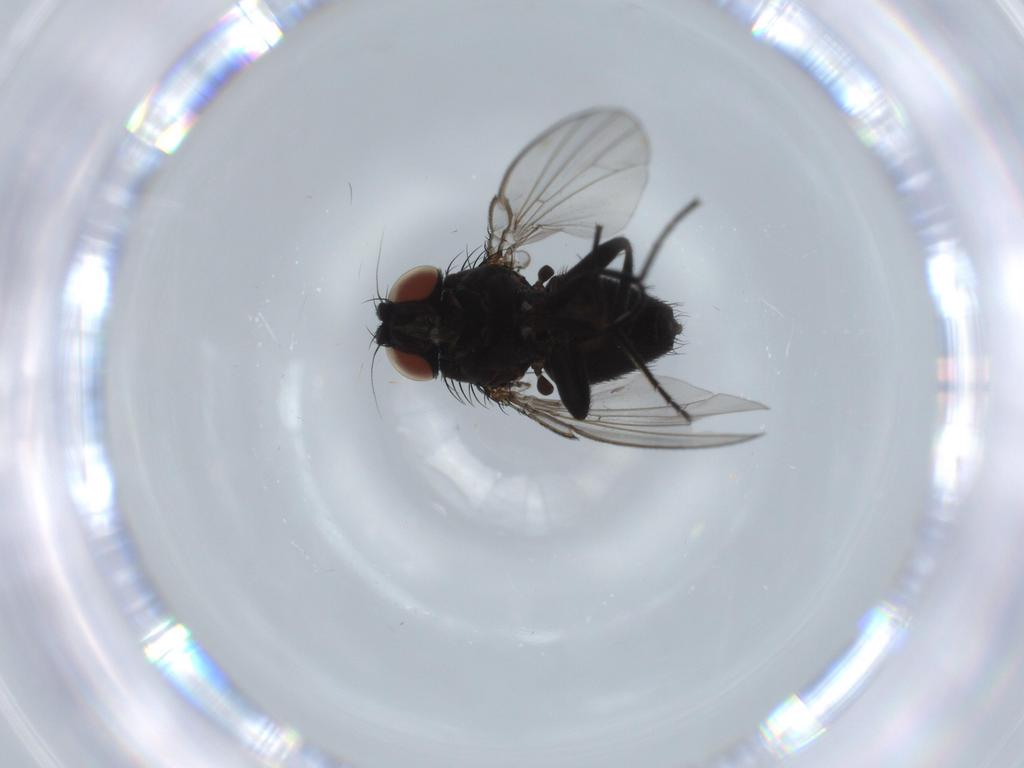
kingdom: Animalia
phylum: Arthropoda
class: Insecta
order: Diptera
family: Milichiidae
